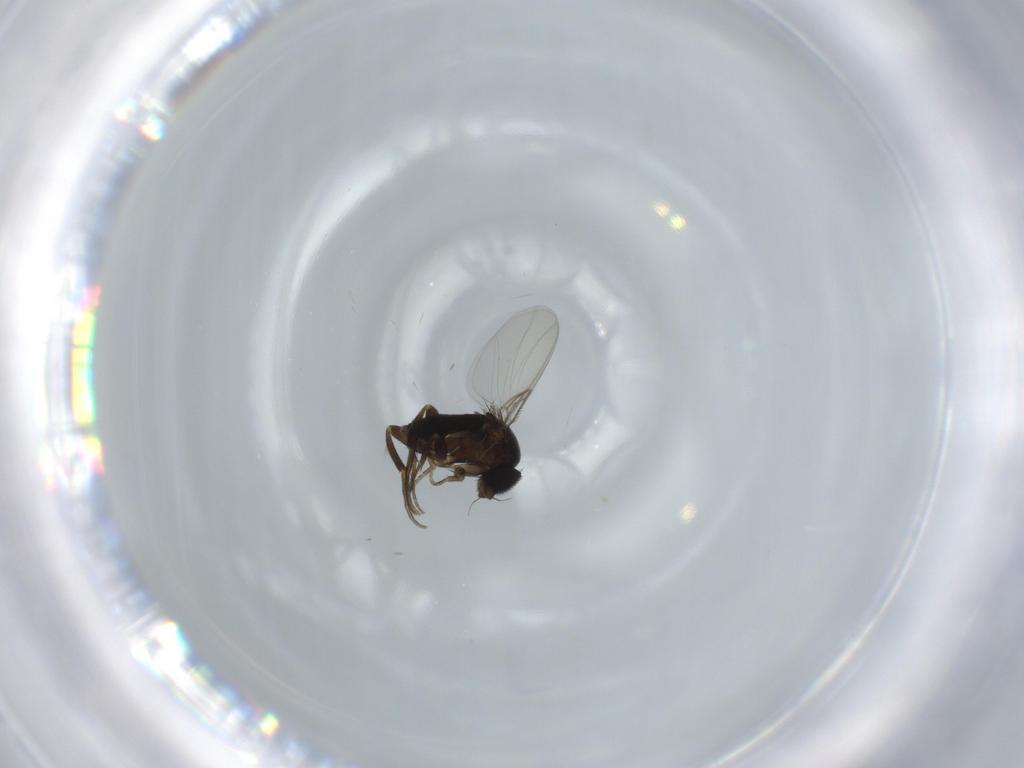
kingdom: Animalia
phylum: Arthropoda
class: Insecta
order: Diptera
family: Phoridae
